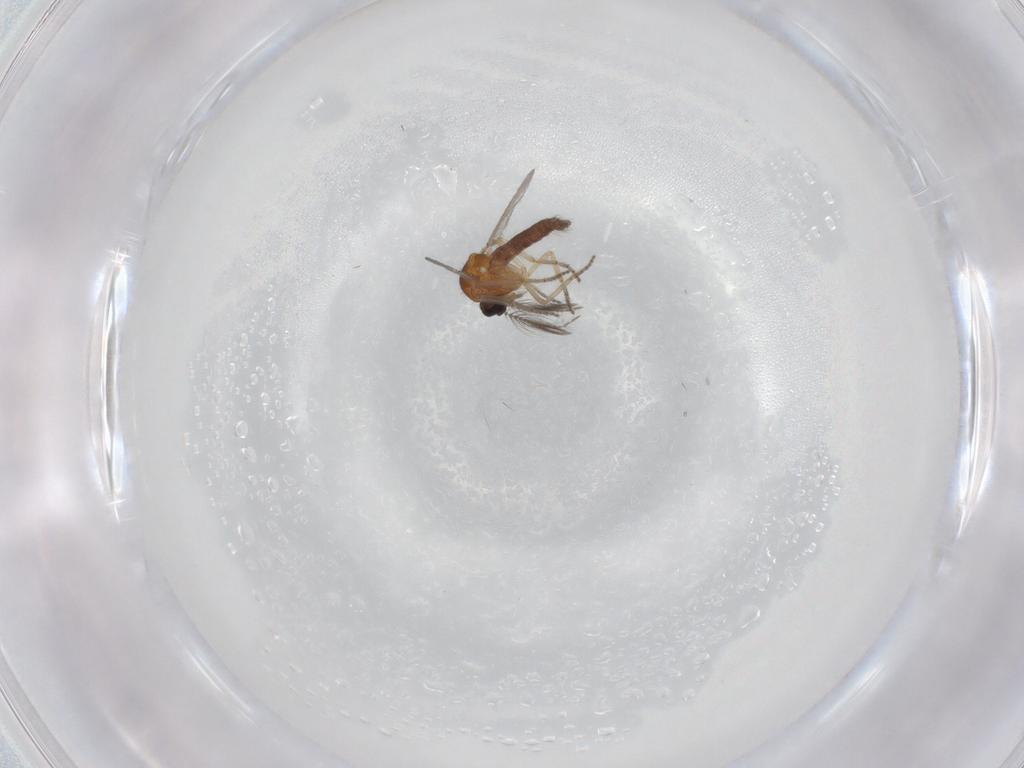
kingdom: Animalia
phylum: Arthropoda
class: Insecta
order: Diptera
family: Ceratopogonidae
